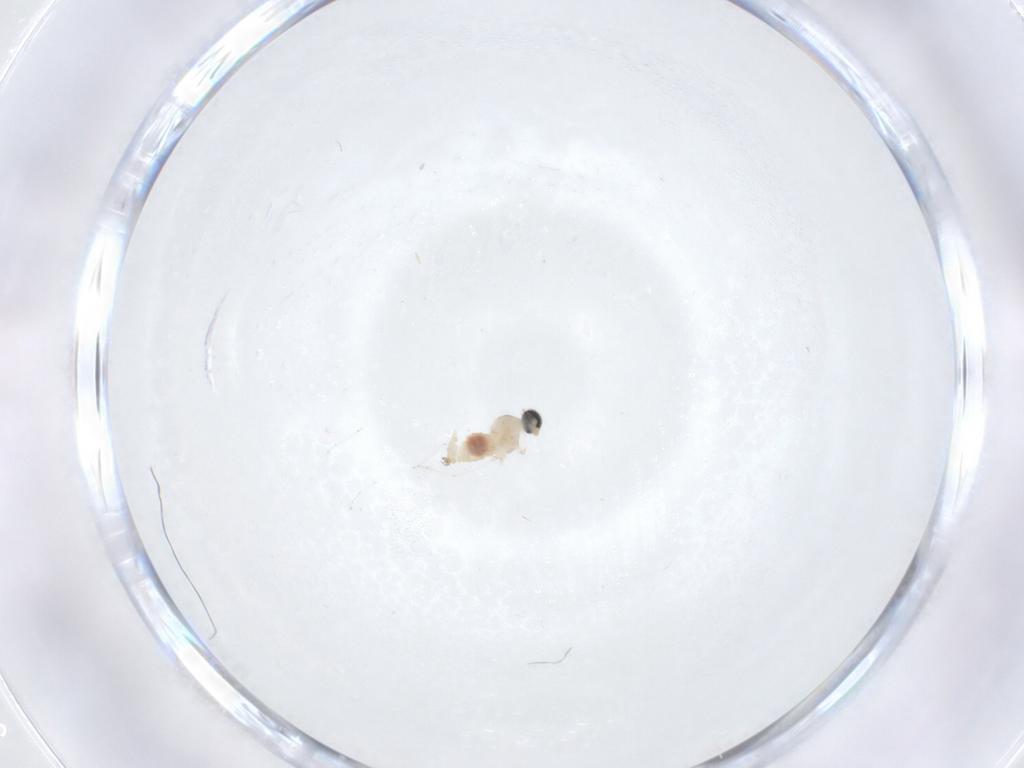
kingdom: Animalia
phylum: Arthropoda
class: Insecta
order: Diptera
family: Cecidomyiidae
